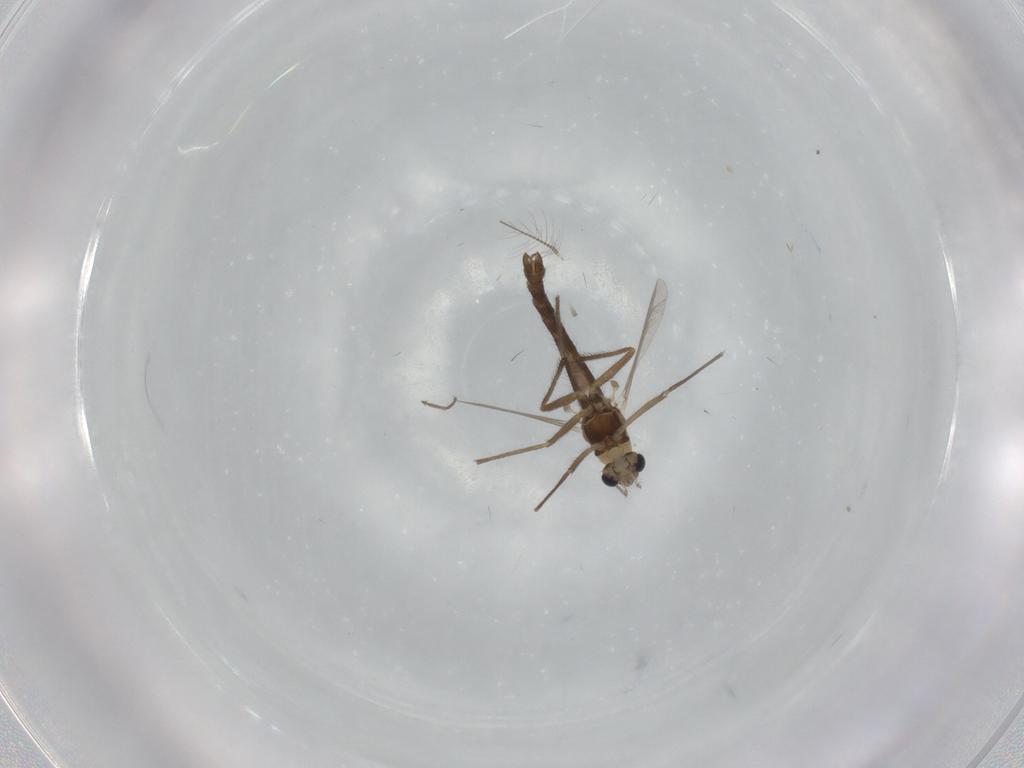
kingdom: Animalia
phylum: Arthropoda
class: Insecta
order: Diptera
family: Chironomidae
